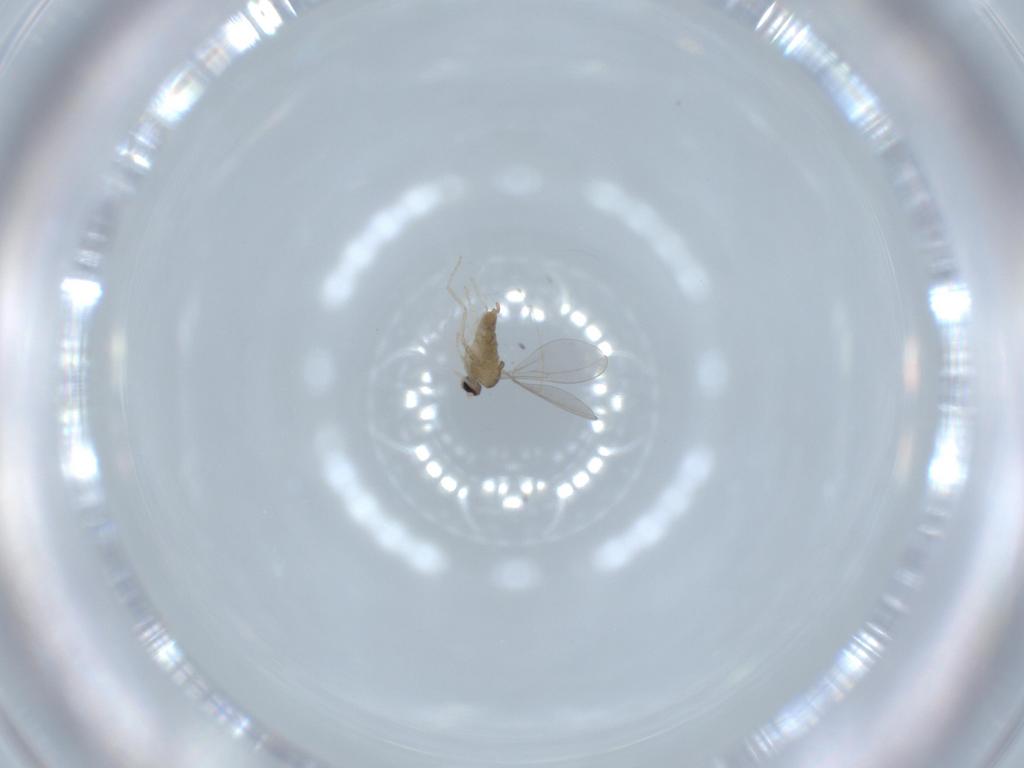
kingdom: Animalia
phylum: Arthropoda
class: Insecta
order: Diptera
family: Cecidomyiidae
